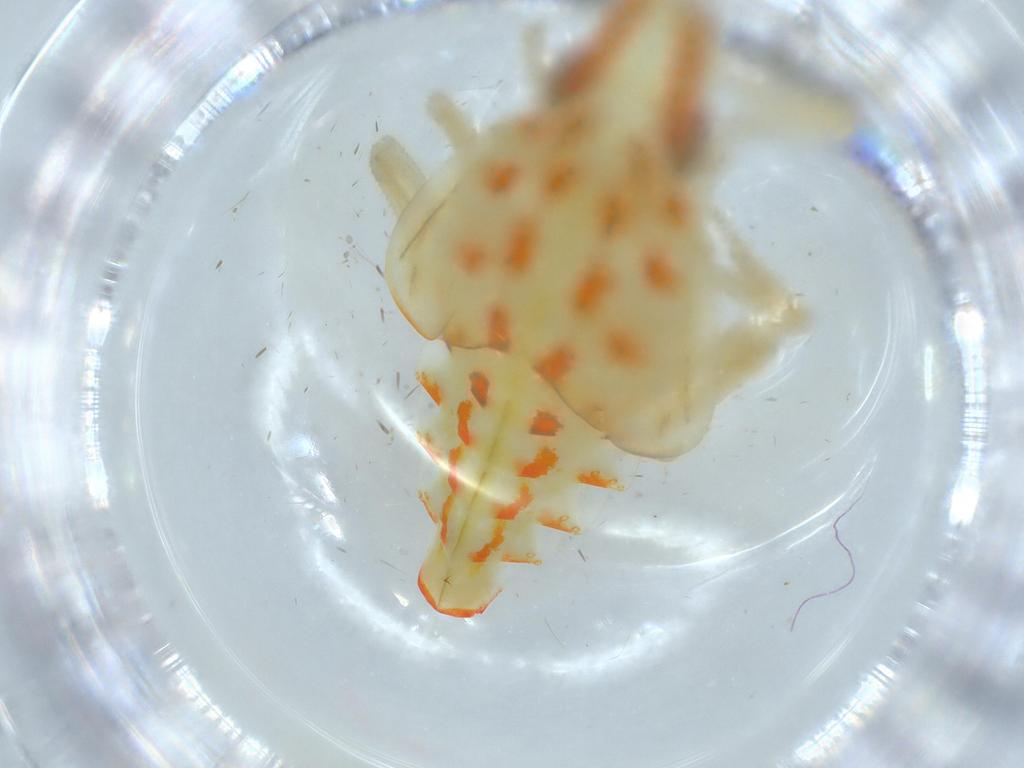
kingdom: Animalia
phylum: Arthropoda
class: Insecta
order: Hemiptera
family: Tropiduchidae
